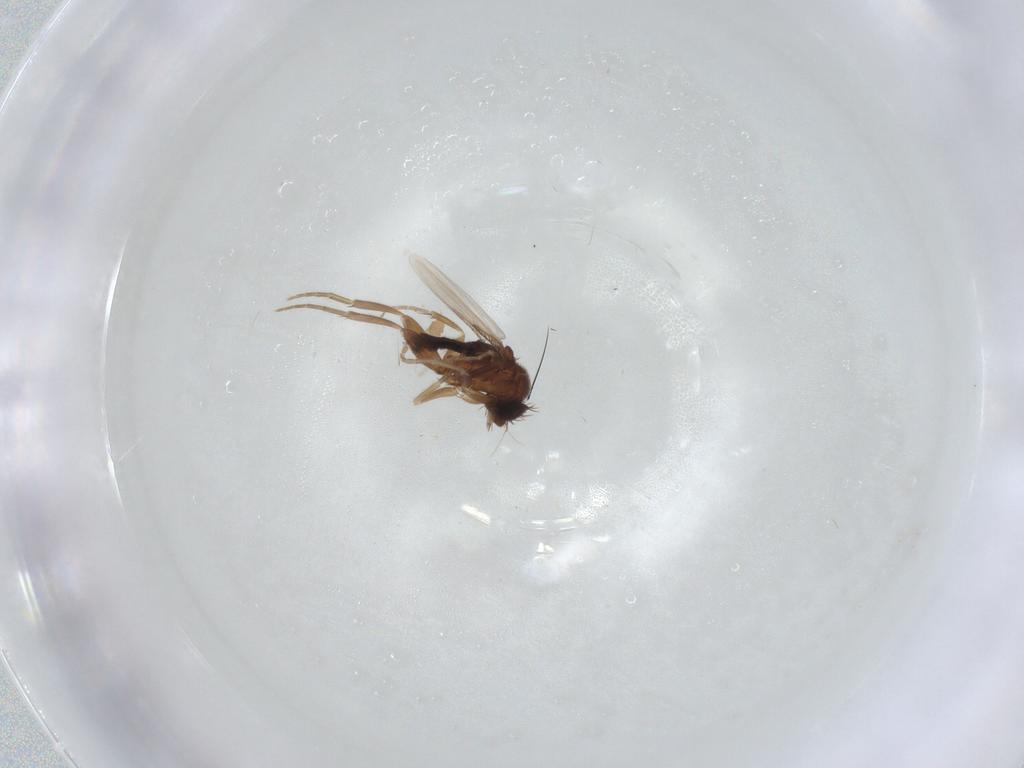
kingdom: Animalia
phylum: Arthropoda
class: Insecta
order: Diptera
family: Phoridae
